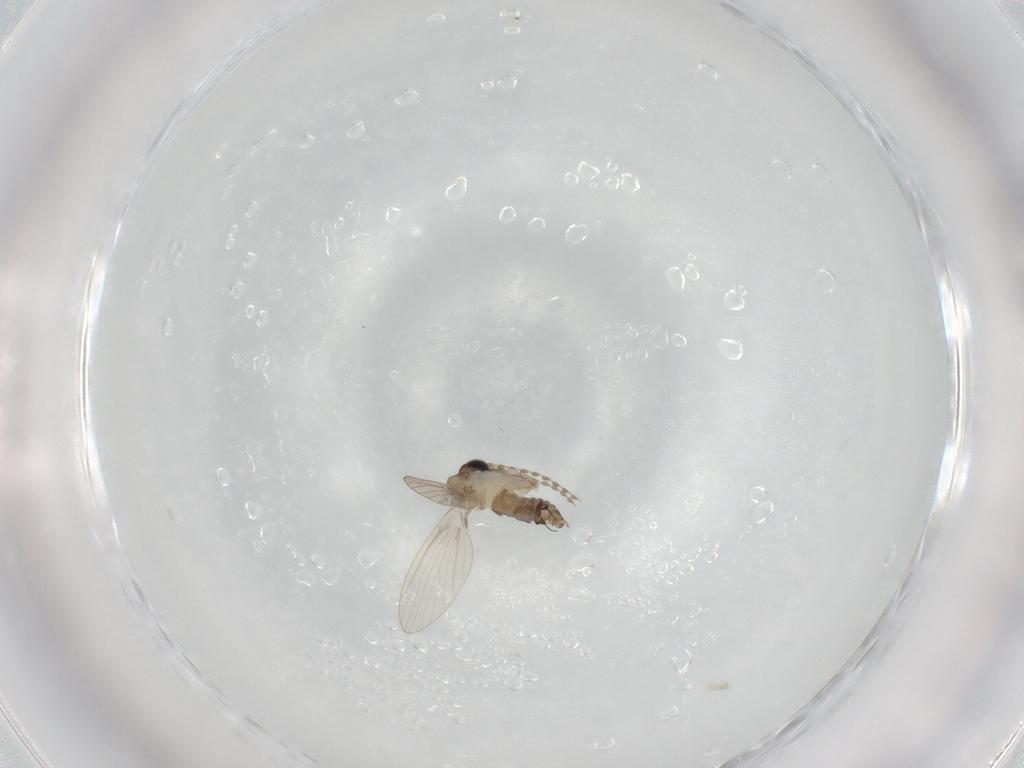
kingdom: Animalia
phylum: Arthropoda
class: Insecta
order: Diptera
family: Psychodidae
